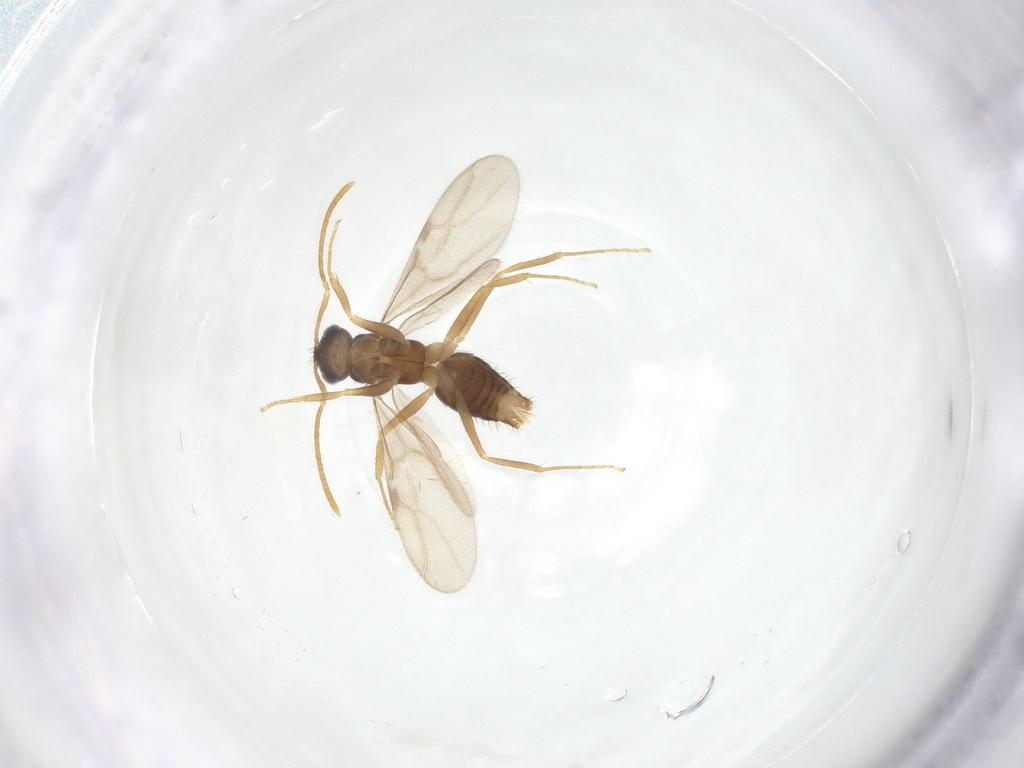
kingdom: Animalia
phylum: Arthropoda
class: Insecta
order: Hymenoptera
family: Formicidae
